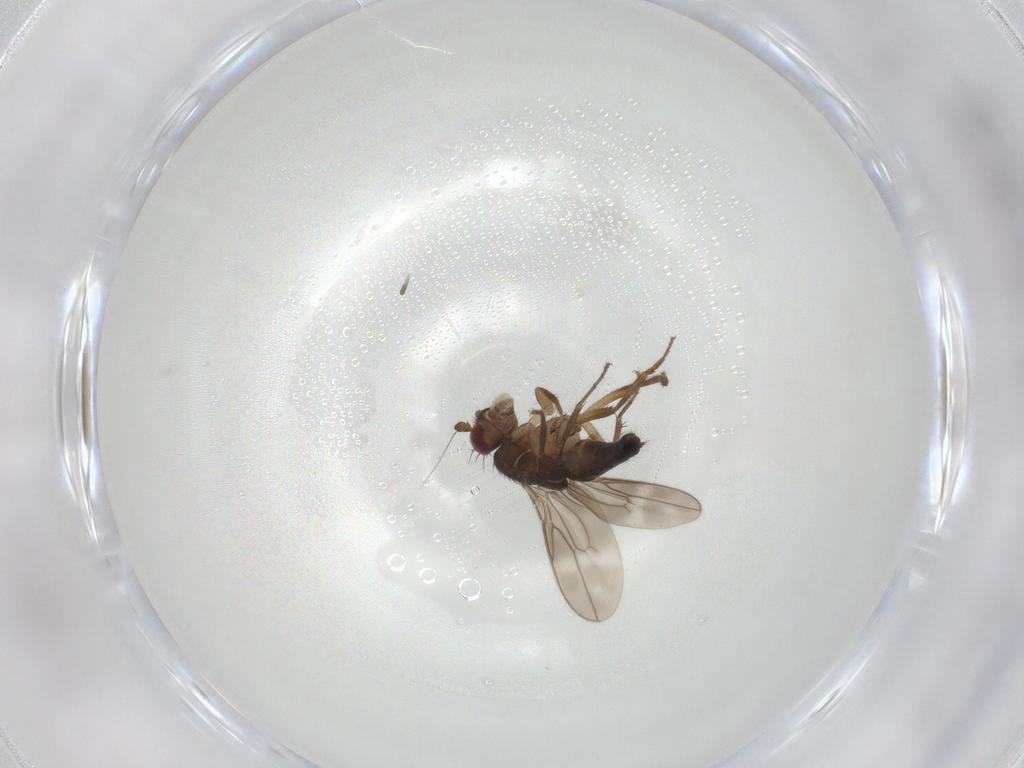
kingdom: Animalia
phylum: Arthropoda
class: Insecta
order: Diptera
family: Sphaeroceridae
